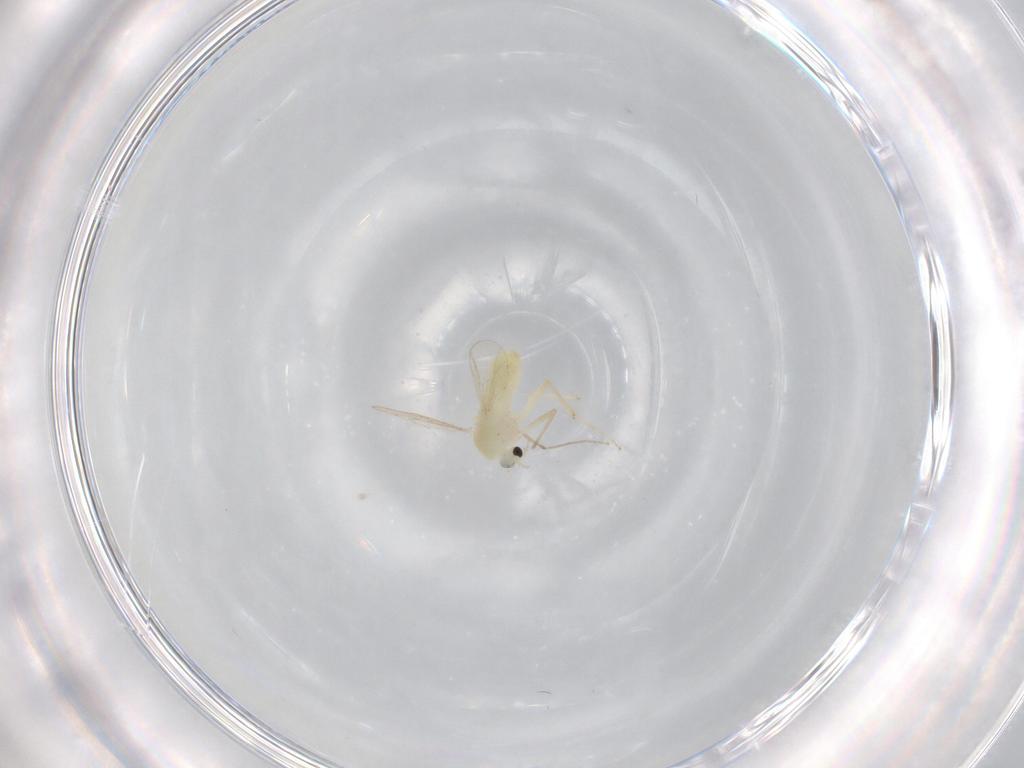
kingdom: Animalia
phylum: Arthropoda
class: Insecta
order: Diptera
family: Chironomidae
